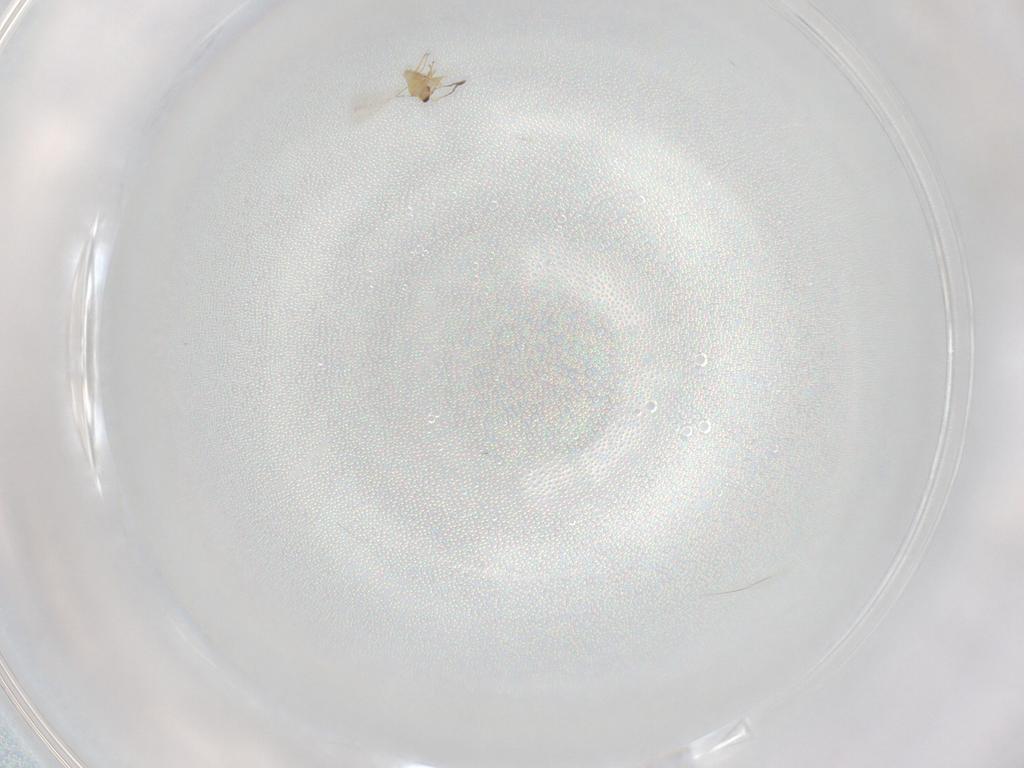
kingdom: Animalia
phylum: Arthropoda
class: Insecta
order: Hymenoptera
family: Mymaridae
